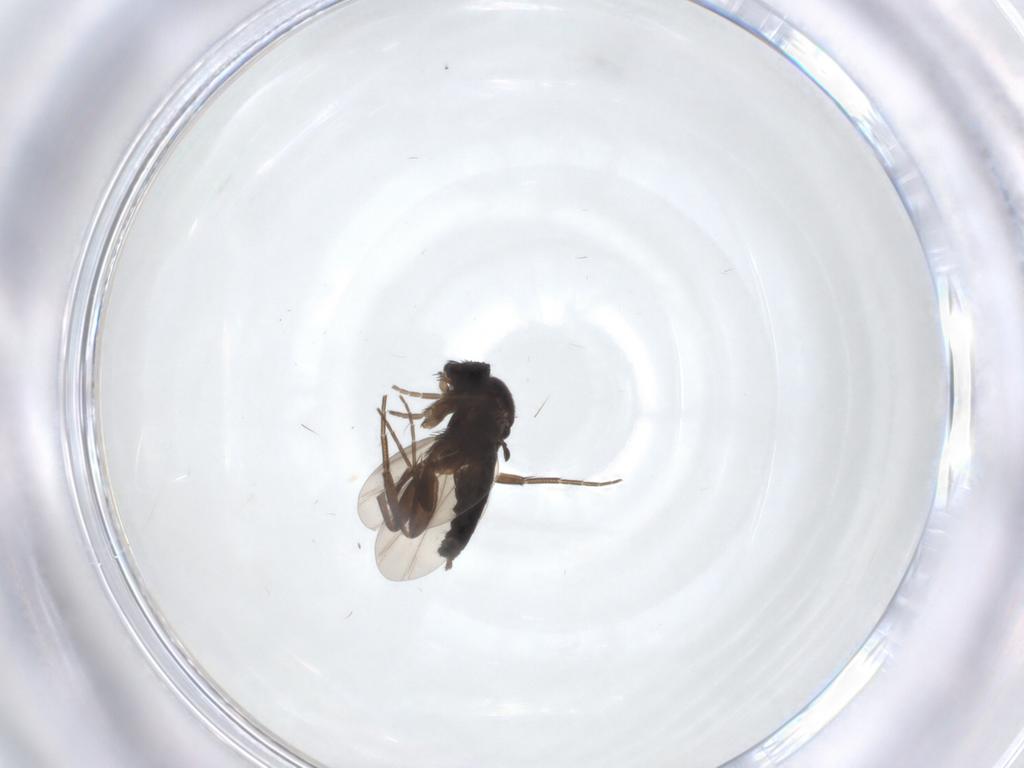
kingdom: Animalia
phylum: Arthropoda
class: Insecta
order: Diptera
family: Phoridae
